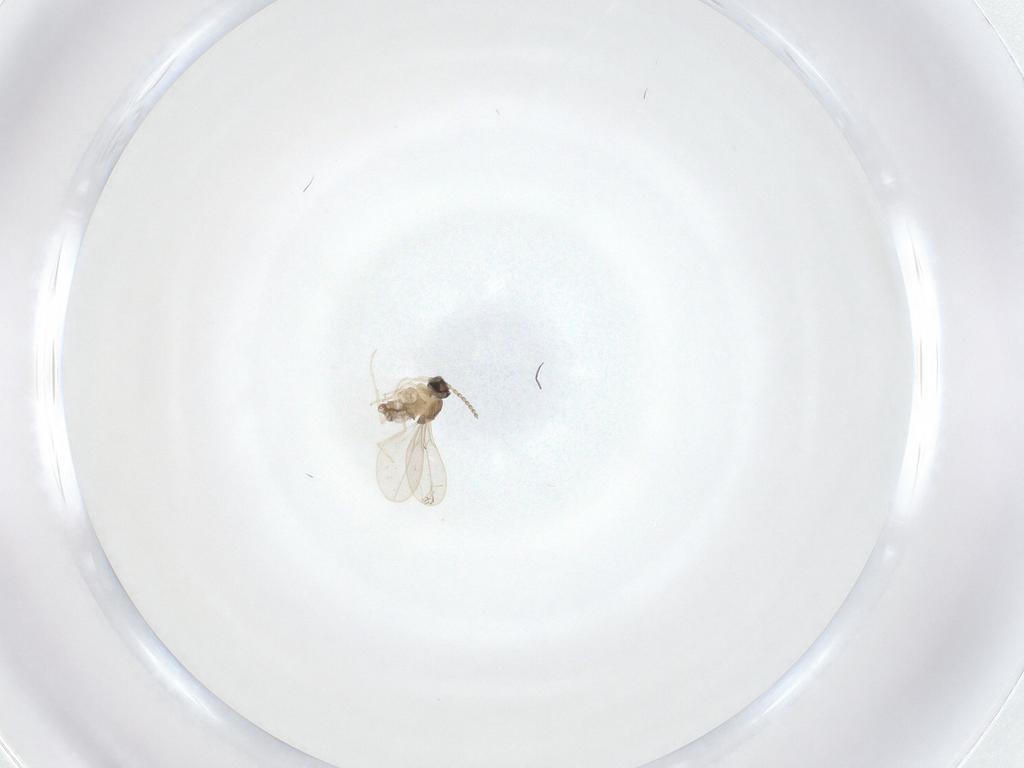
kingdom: Animalia
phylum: Arthropoda
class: Insecta
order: Diptera
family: Cecidomyiidae
